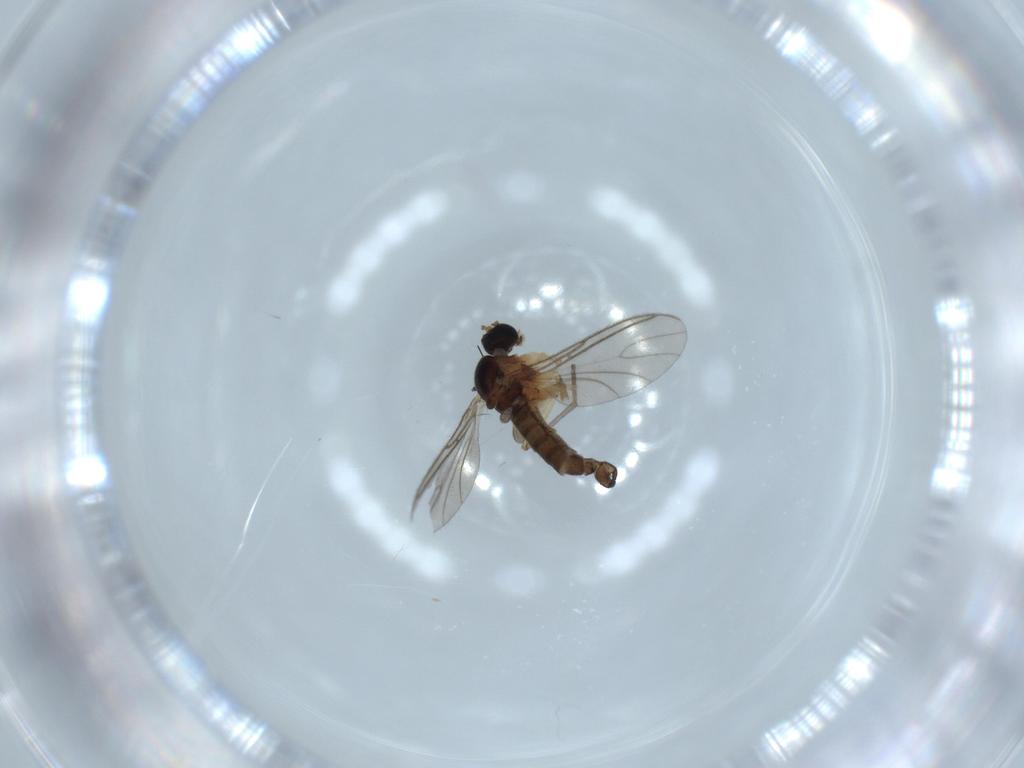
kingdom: Animalia
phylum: Arthropoda
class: Insecta
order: Diptera
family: Sciaridae
